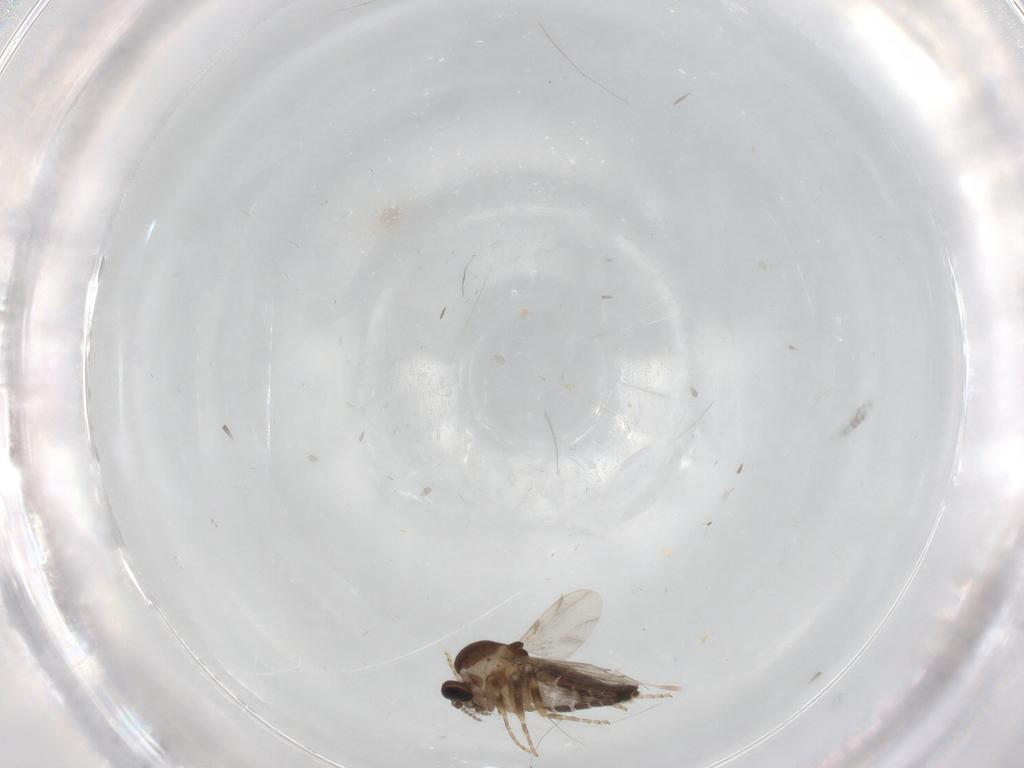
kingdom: Animalia
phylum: Arthropoda
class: Insecta
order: Diptera
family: Ceratopogonidae
